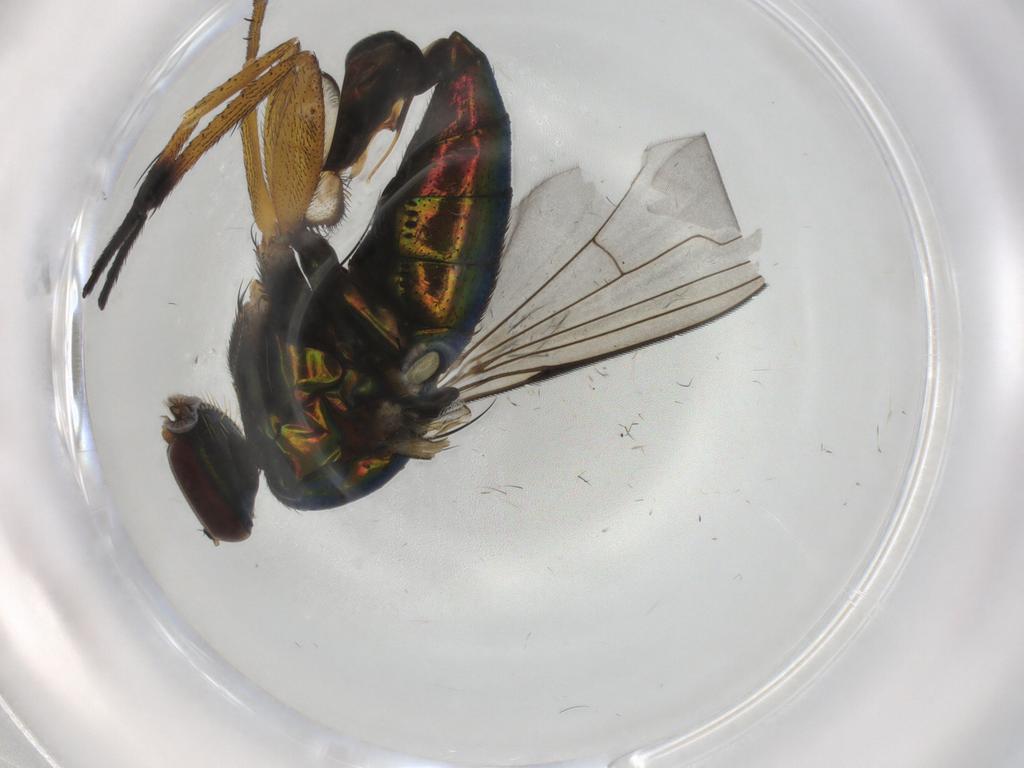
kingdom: Animalia
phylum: Arthropoda
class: Insecta
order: Diptera
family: Dolichopodidae
